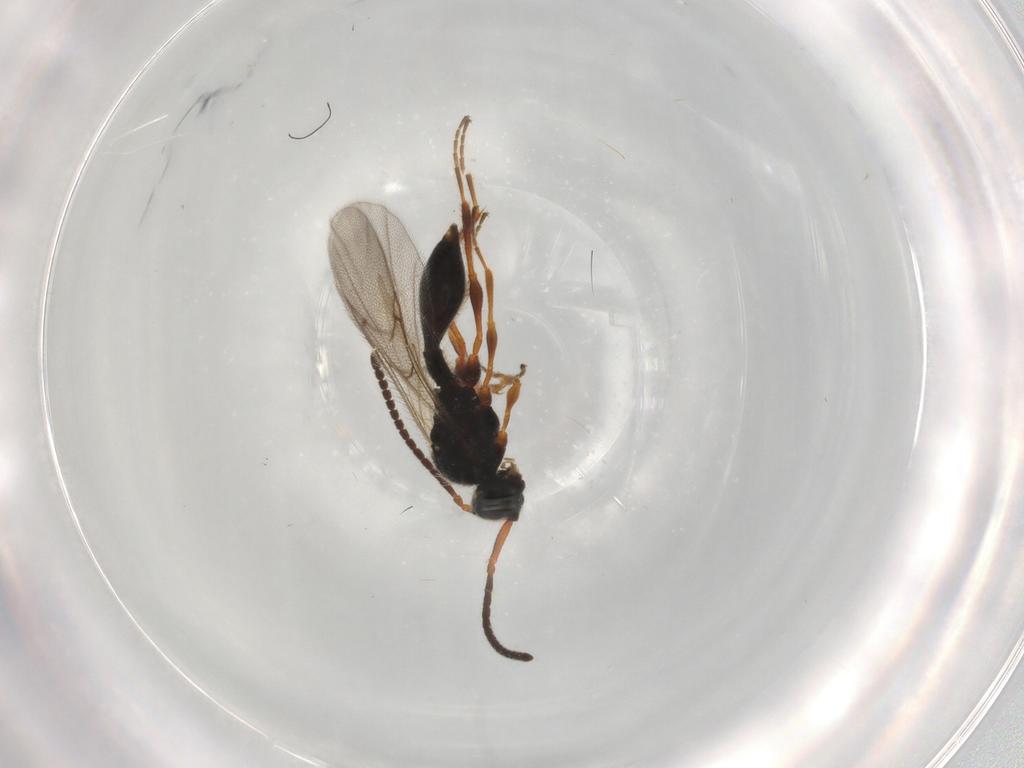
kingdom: Animalia
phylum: Arthropoda
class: Insecta
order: Hymenoptera
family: Diapriidae
